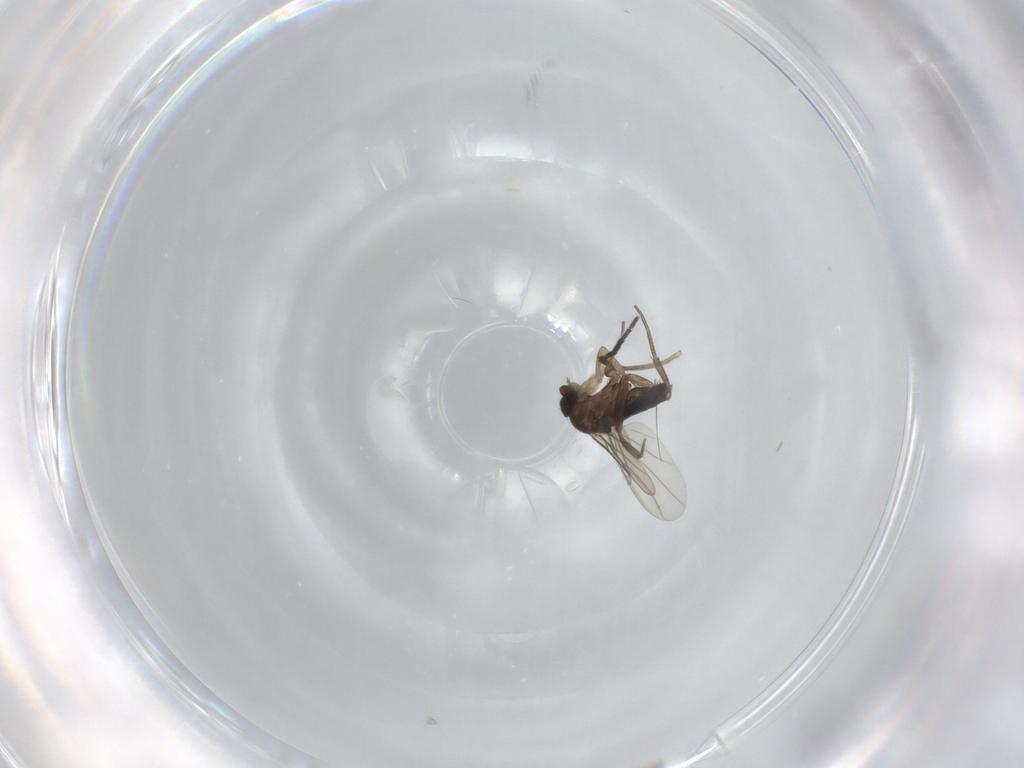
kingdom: Animalia
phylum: Arthropoda
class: Insecta
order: Diptera
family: Phoridae
